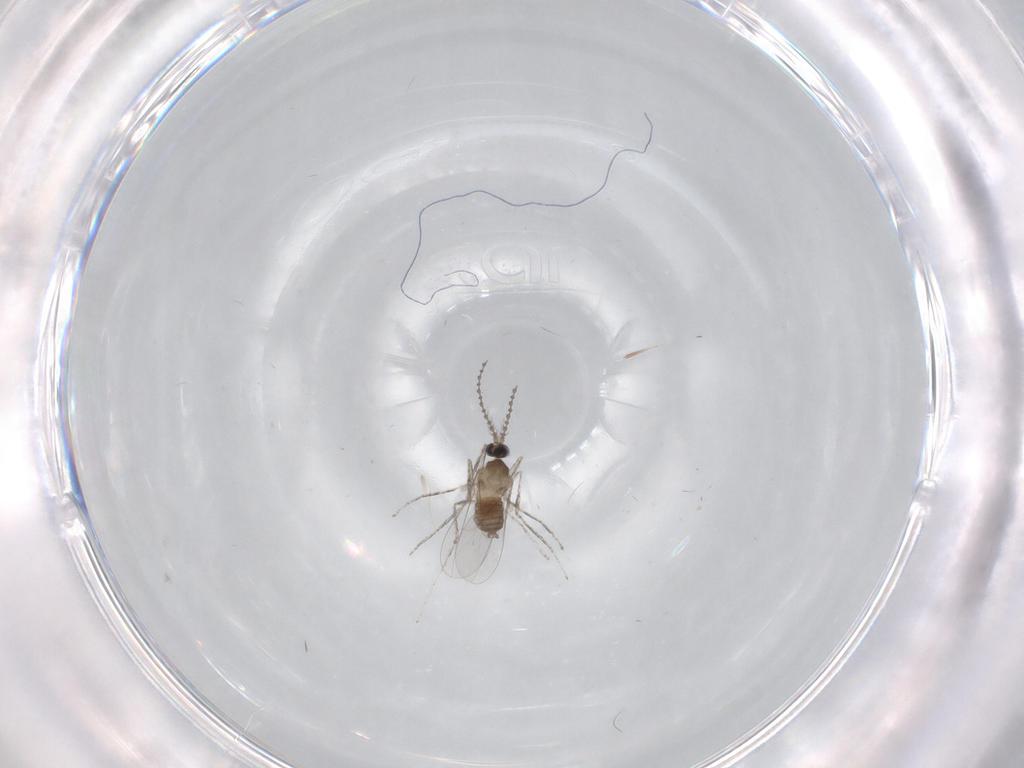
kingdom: Animalia
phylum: Arthropoda
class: Insecta
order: Diptera
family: Cecidomyiidae
